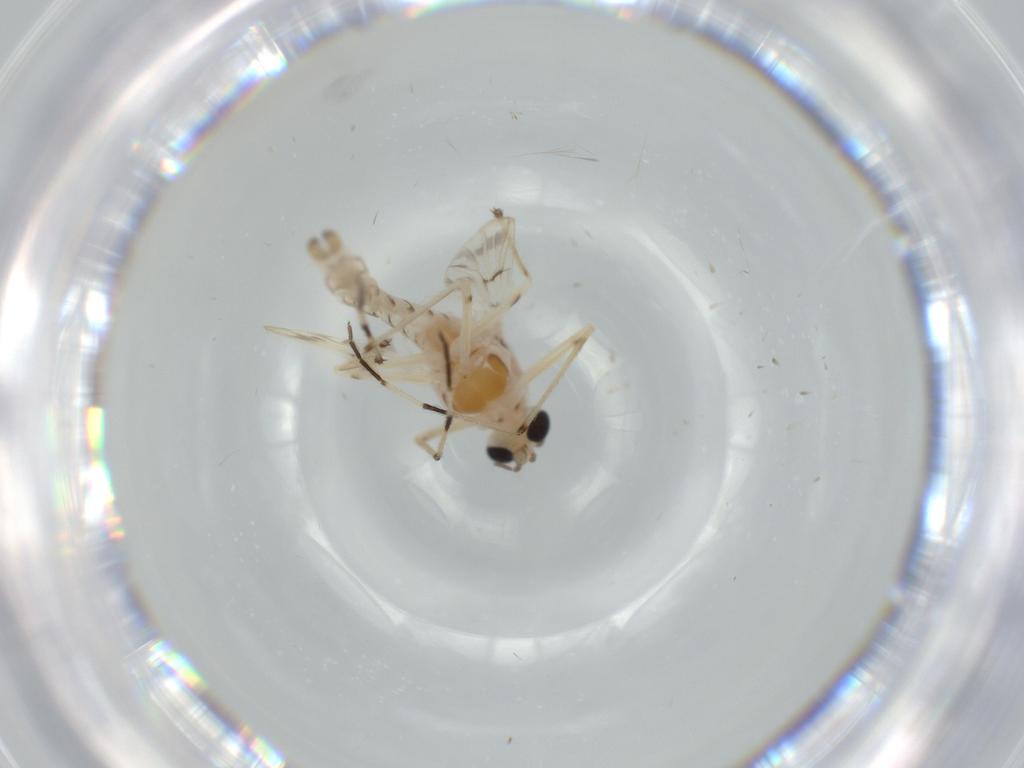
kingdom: Animalia
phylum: Arthropoda
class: Insecta
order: Diptera
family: Chironomidae
